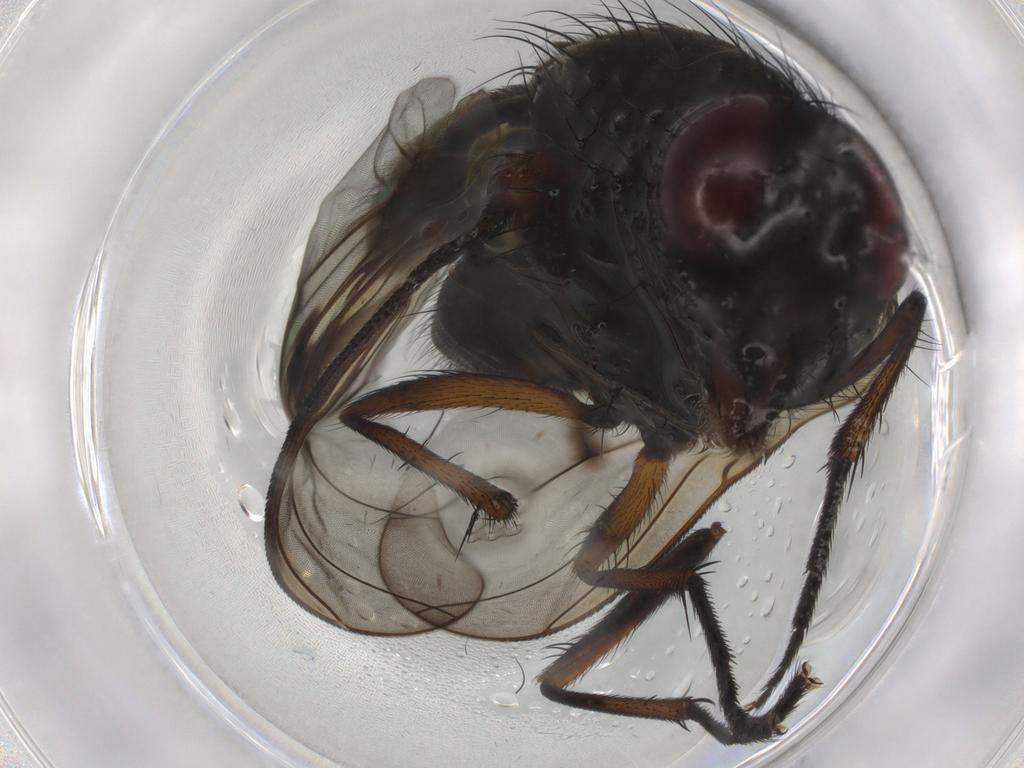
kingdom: Animalia
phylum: Arthropoda
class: Insecta
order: Diptera
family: Sciaridae
